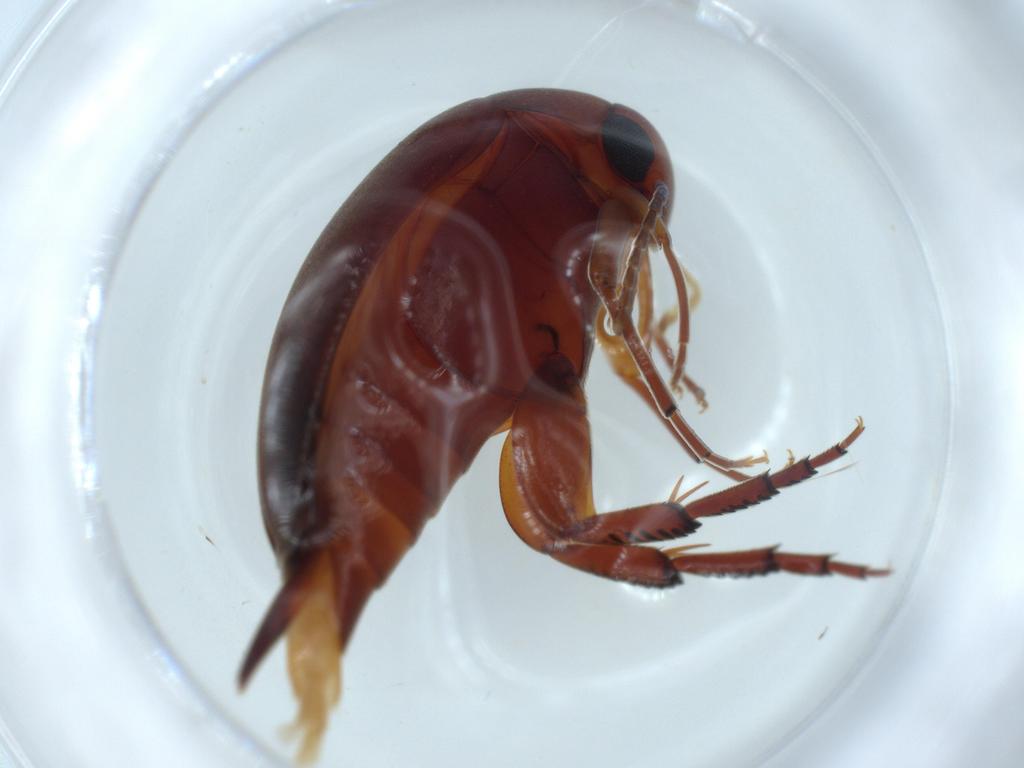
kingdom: Animalia
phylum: Arthropoda
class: Insecta
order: Coleoptera
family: Mordellidae
